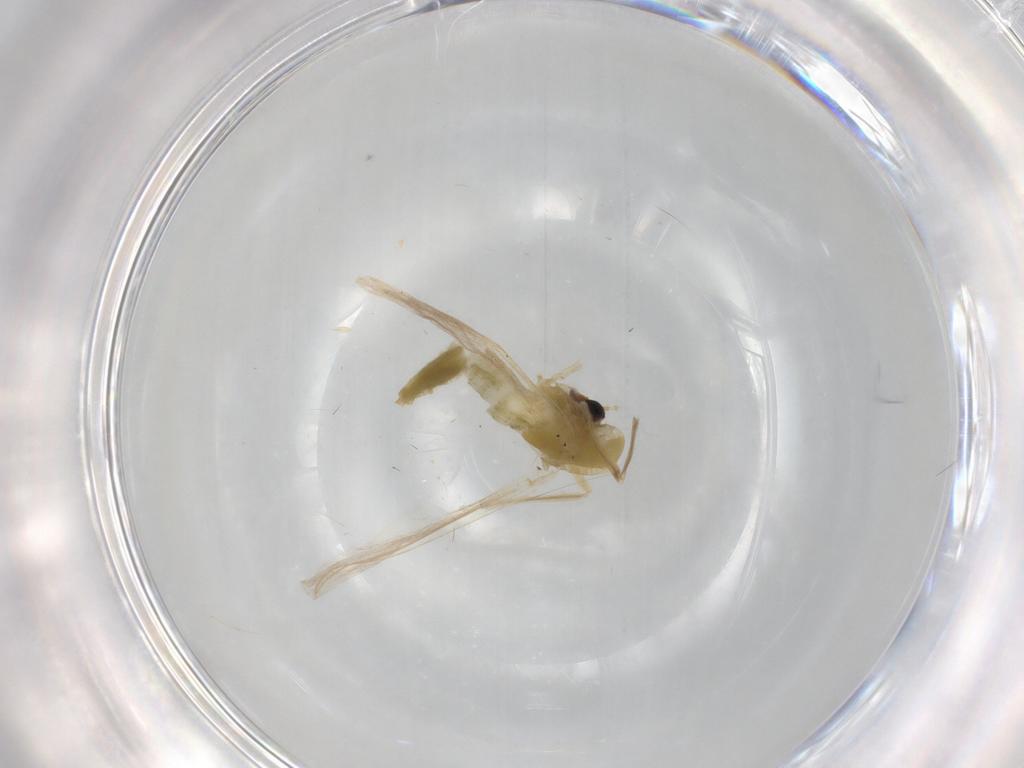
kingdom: Animalia
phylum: Arthropoda
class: Insecta
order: Diptera
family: Chironomidae
